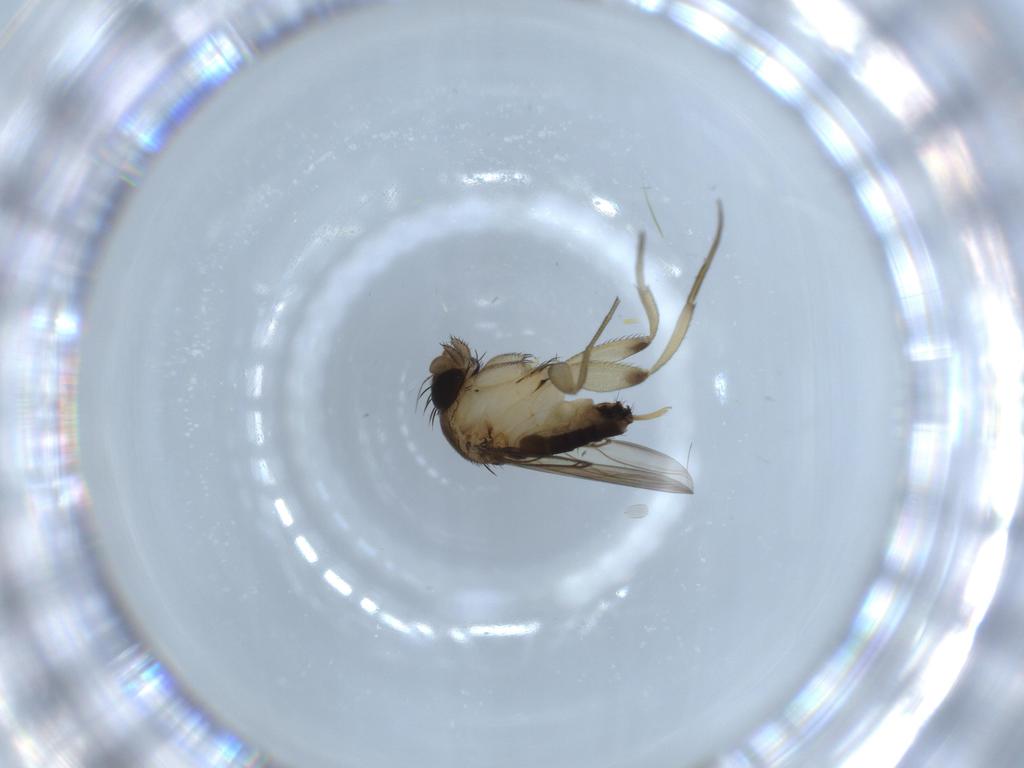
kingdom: Animalia
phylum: Arthropoda
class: Insecta
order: Diptera
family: Phoridae
